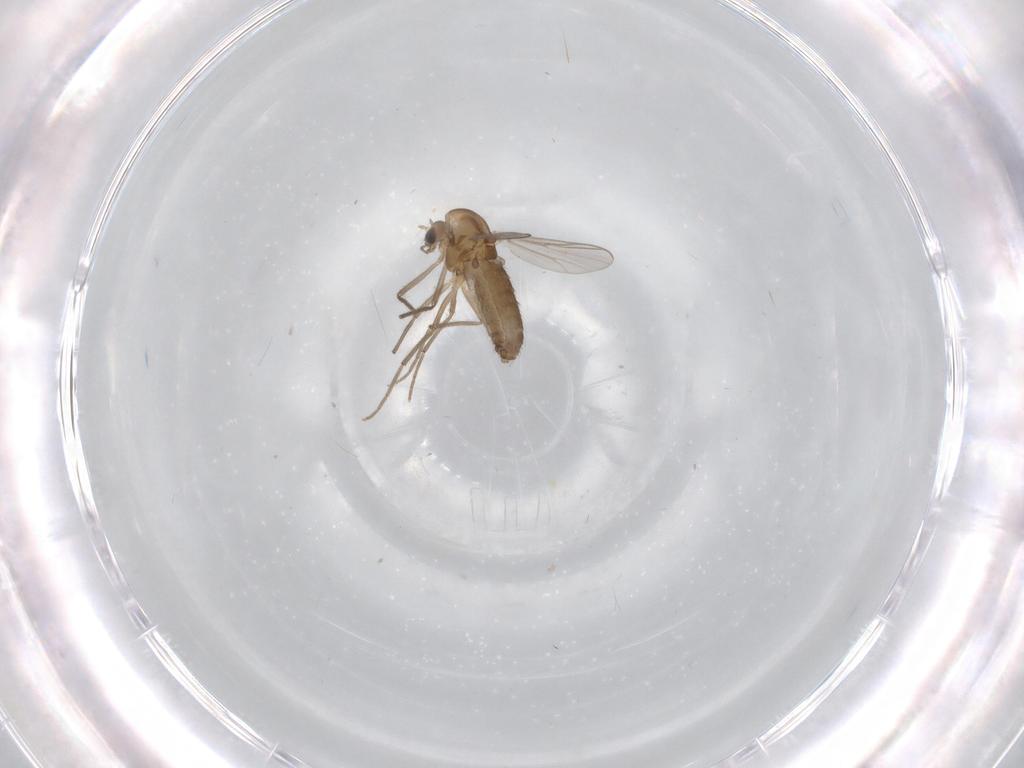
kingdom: Animalia
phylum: Arthropoda
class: Insecta
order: Diptera
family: Chironomidae
